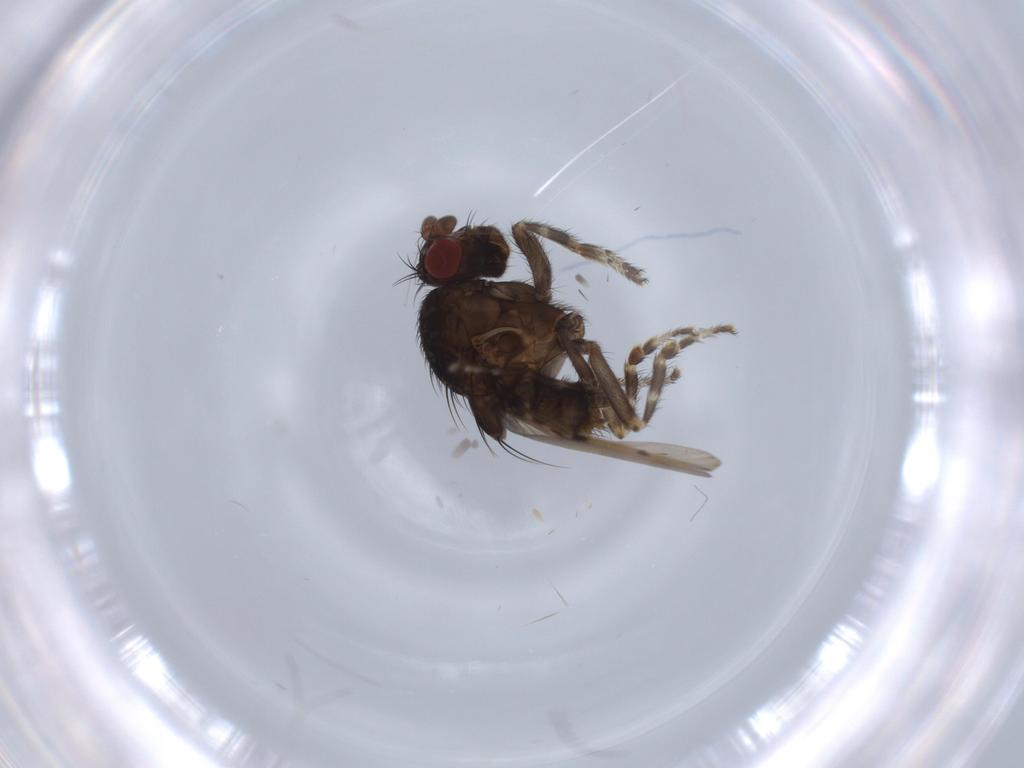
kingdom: Animalia
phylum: Arthropoda
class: Insecta
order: Diptera
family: Sphaeroceridae
